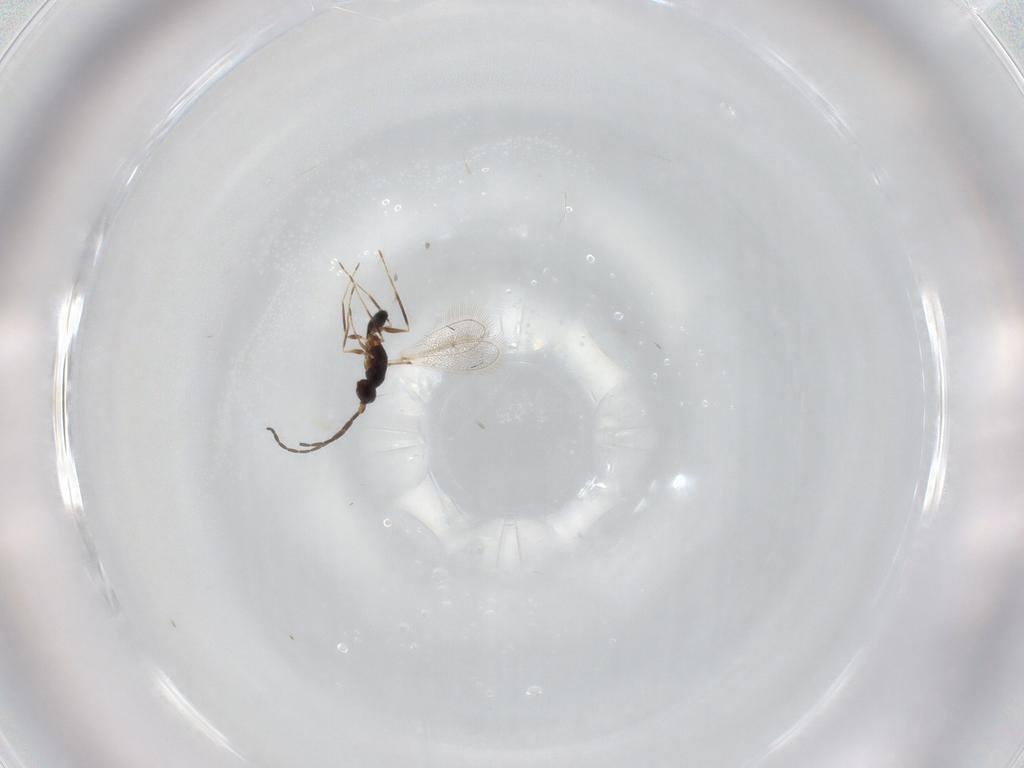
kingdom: Animalia
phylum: Arthropoda
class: Insecta
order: Hymenoptera
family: Mymaridae
